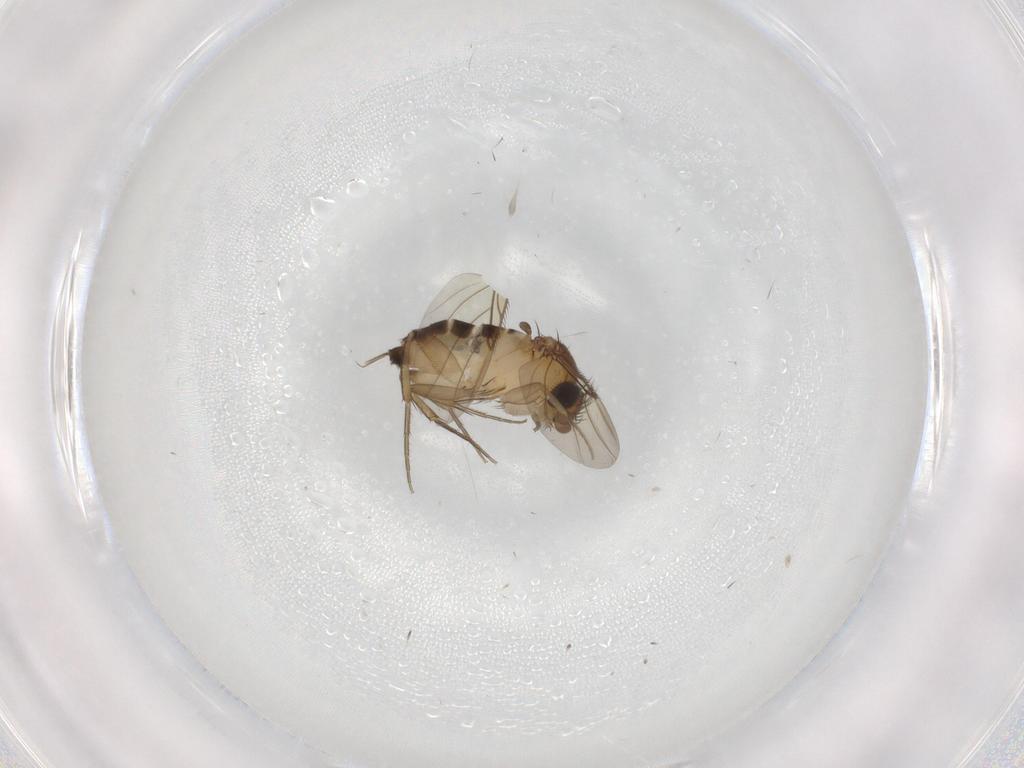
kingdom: Animalia
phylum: Arthropoda
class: Insecta
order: Diptera
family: Phoridae
